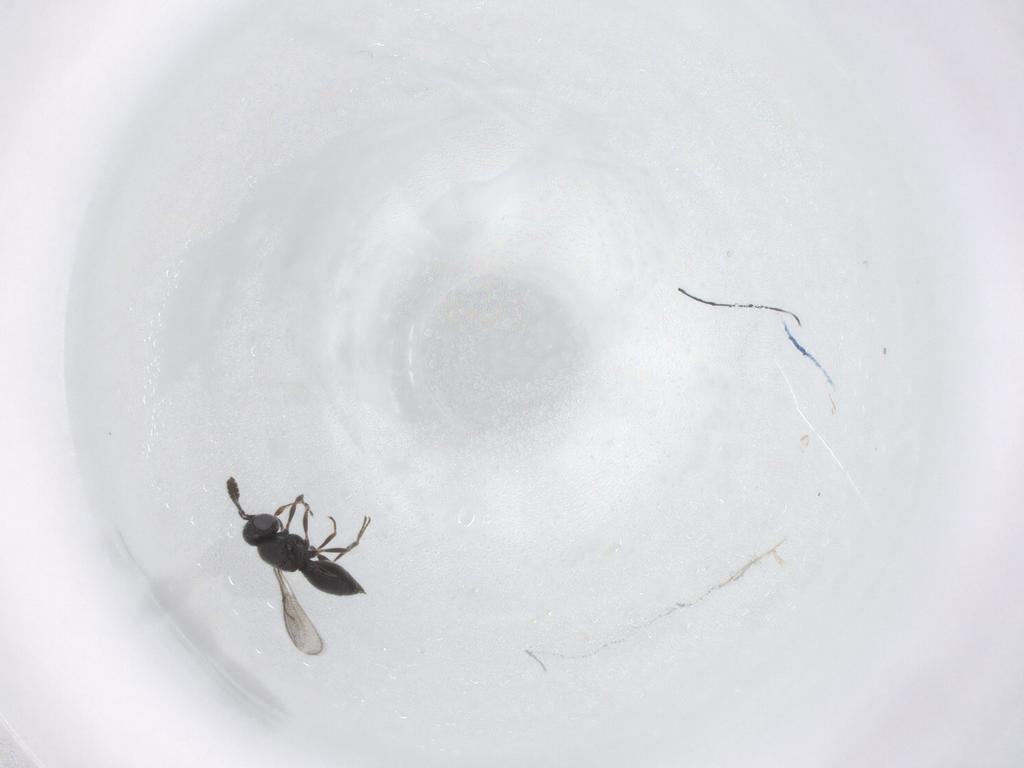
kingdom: Animalia
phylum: Arthropoda
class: Insecta
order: Hymenoptera
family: Scelionidae
